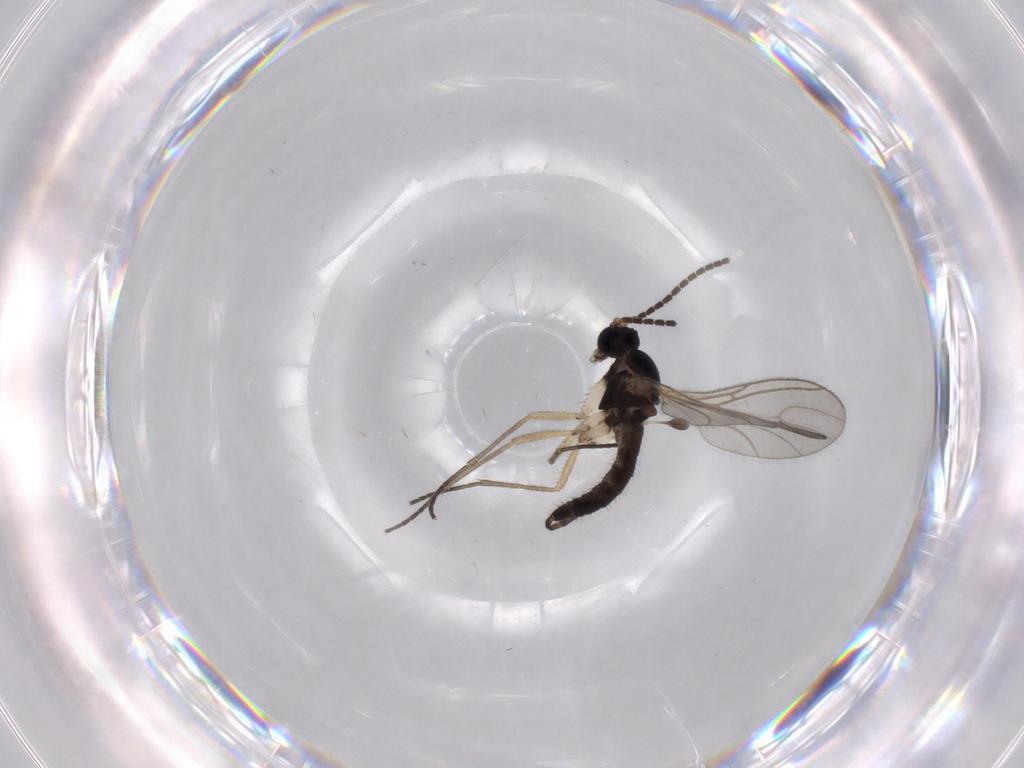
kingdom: Animalia
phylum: Arthropoda
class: Insecta
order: Diptera
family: Sciaridae
